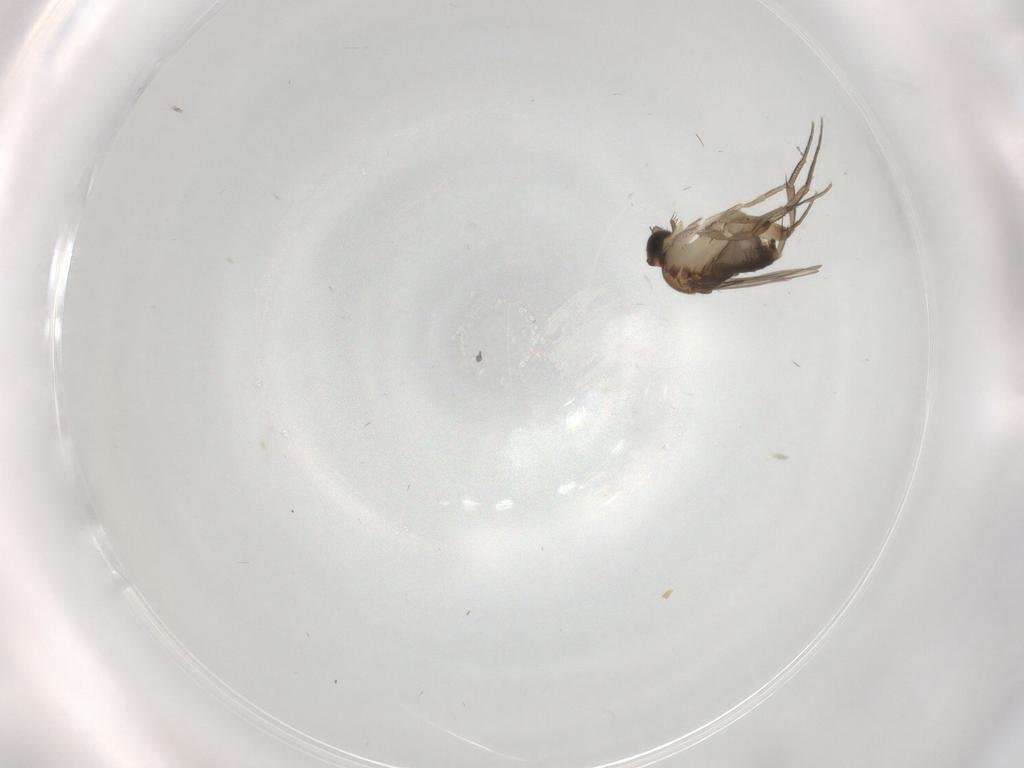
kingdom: Animalia
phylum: Arthropoda
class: Insecta
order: Diptera
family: Phoridae
